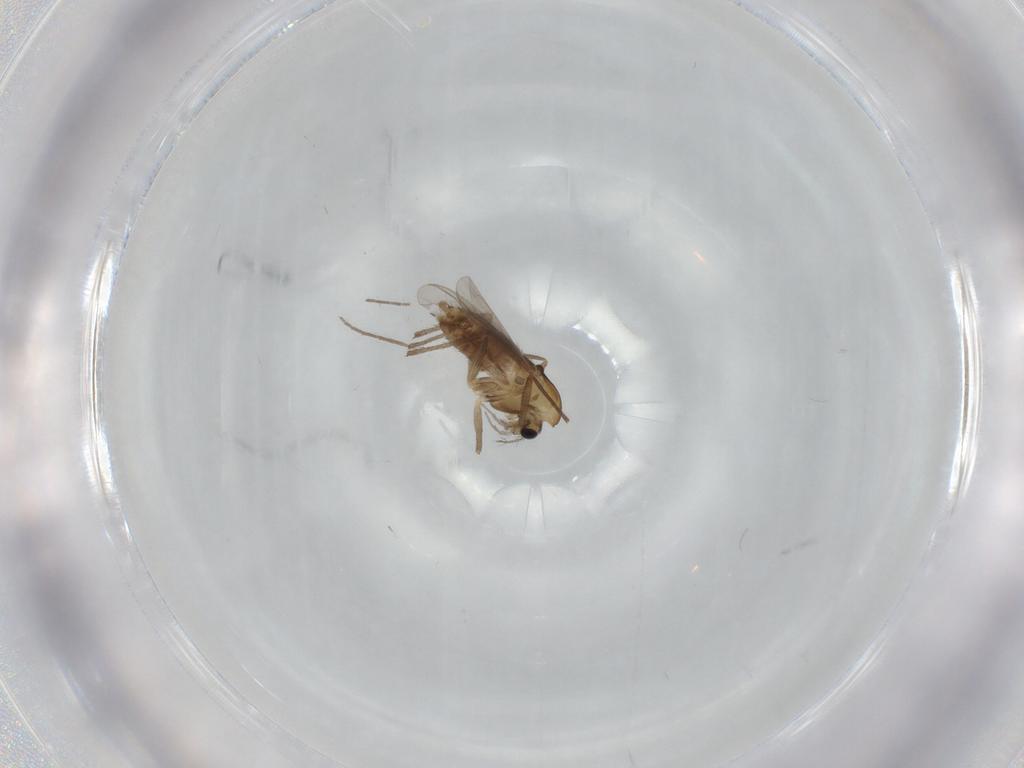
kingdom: Animalia
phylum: Arthropoda
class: Insecta
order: Diptera
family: Chironomidae
